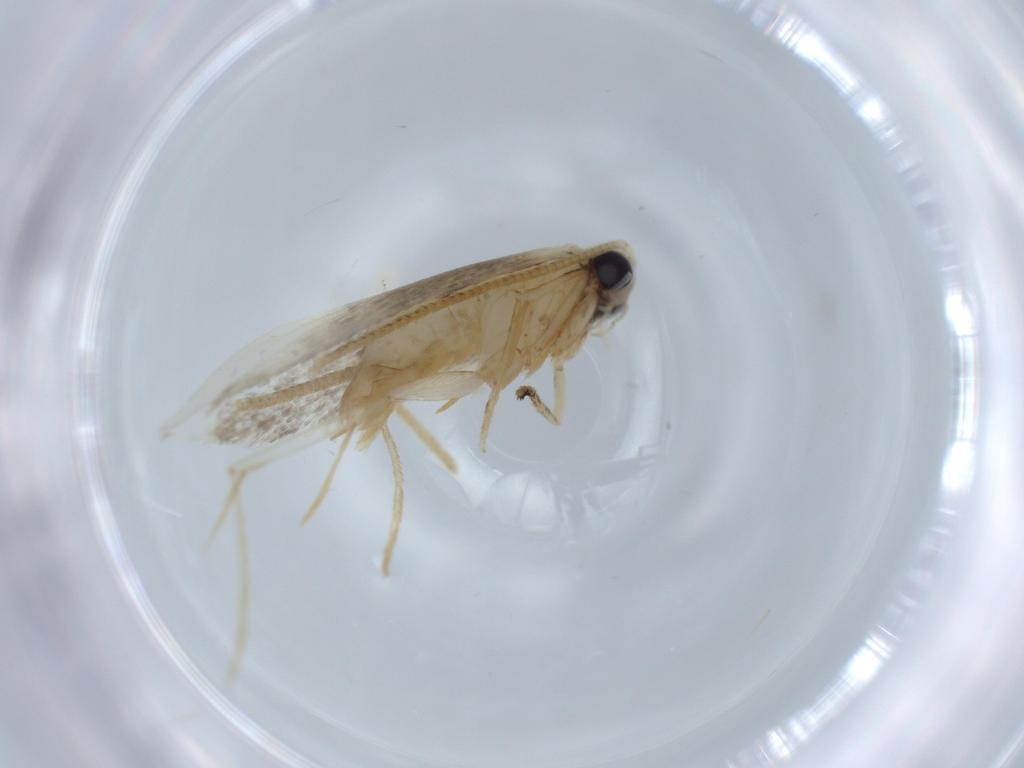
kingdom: Animalia
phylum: Arthropoda
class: Insecta
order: Lepidoptera
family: Tineidae
